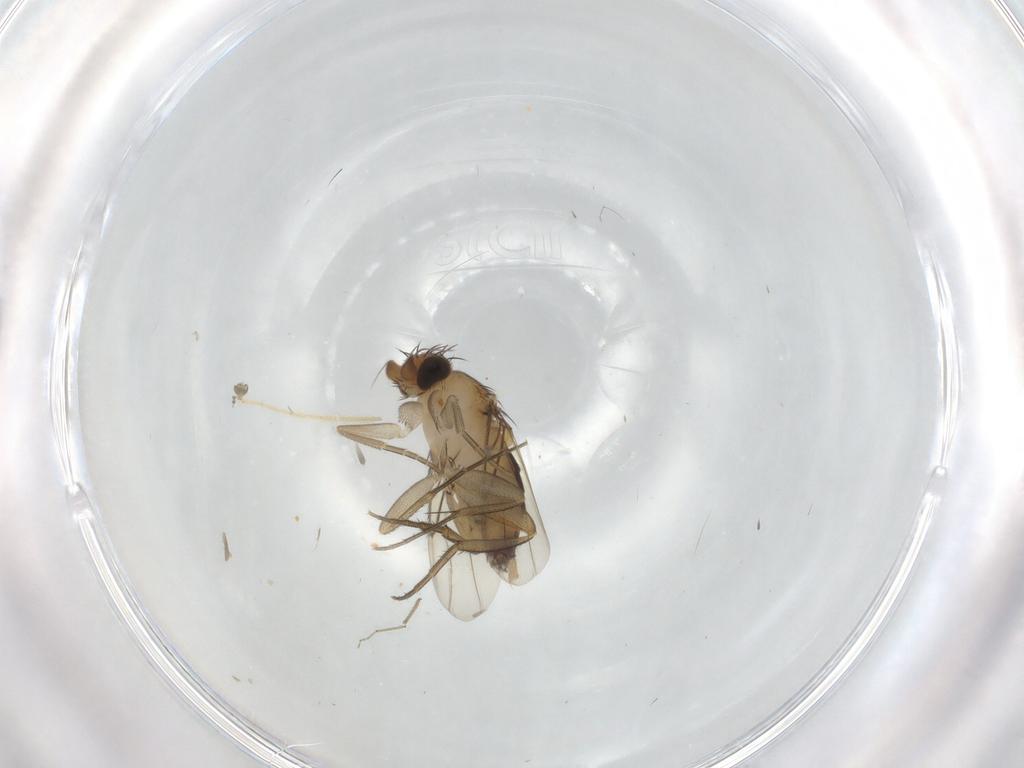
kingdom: Animalia
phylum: Arthropoda
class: Insecta
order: Diptera
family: Phoridae
